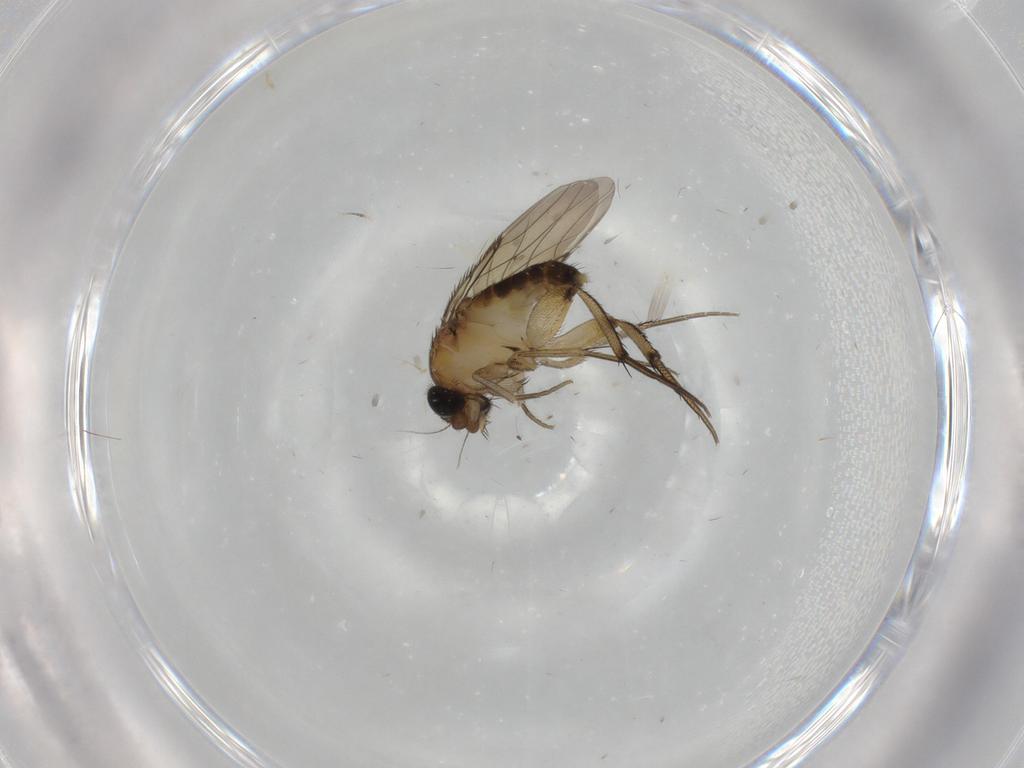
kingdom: Animalia
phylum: Arthropoda
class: Insecta
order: Diptera
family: Phoridae
